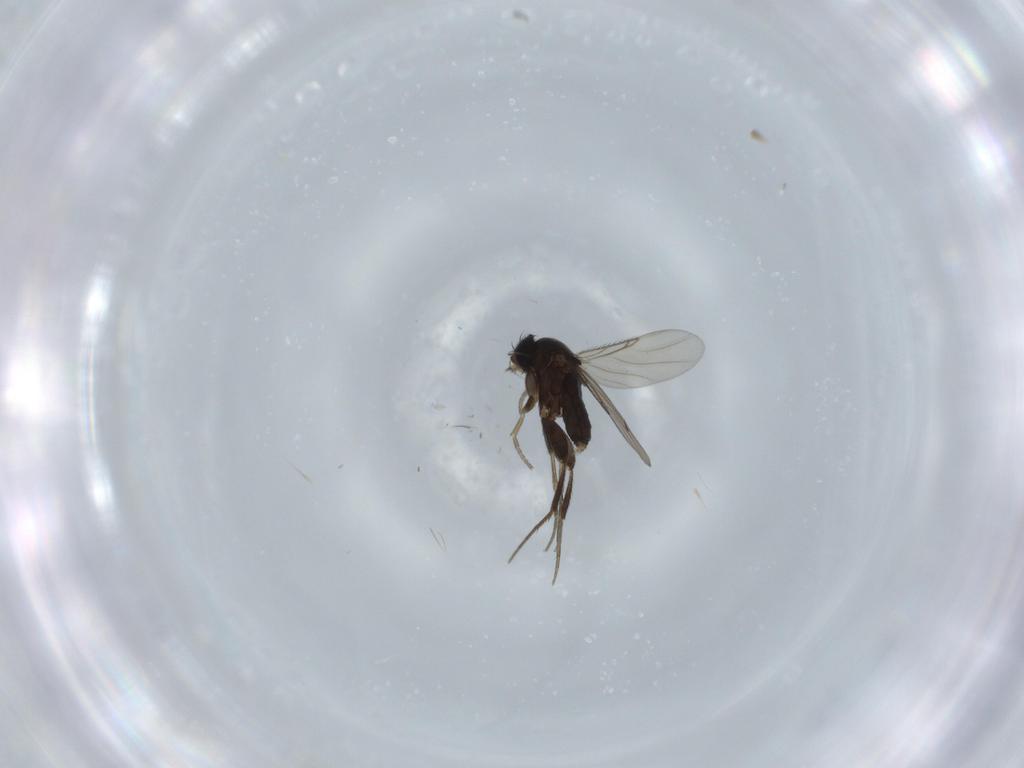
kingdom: Animalia
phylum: Arthropoda
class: Insecta
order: Diptera
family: Phoridae
